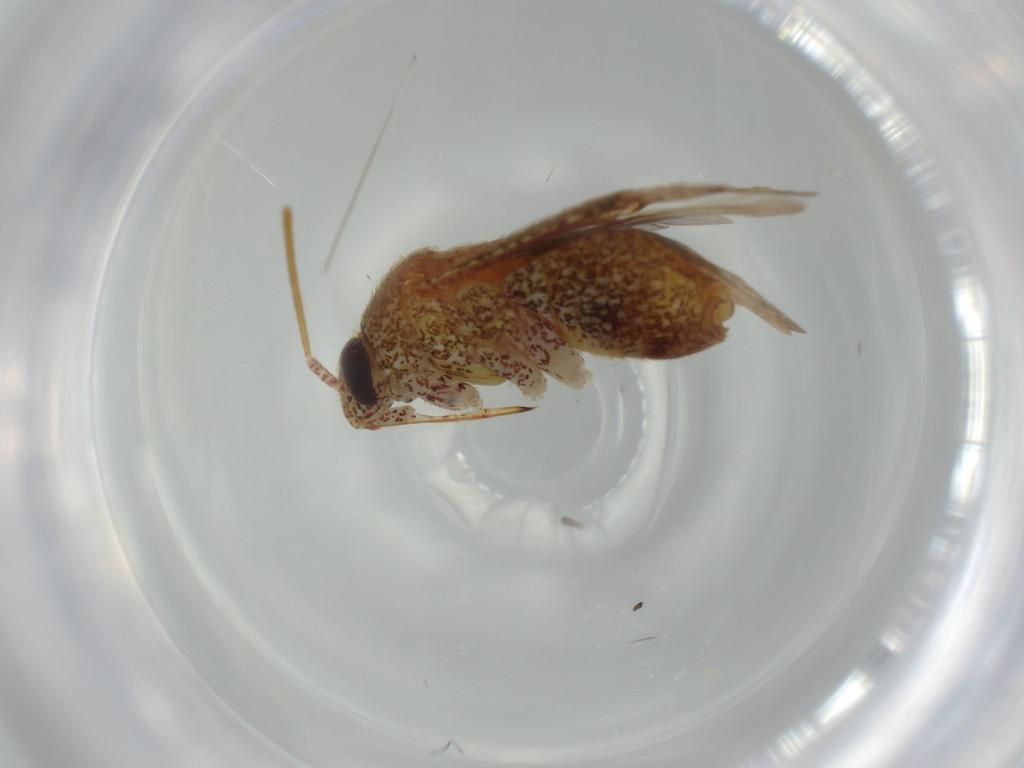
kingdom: Animalia
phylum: Arthropoda
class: Insecta
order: Hemiptera
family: Miridae
